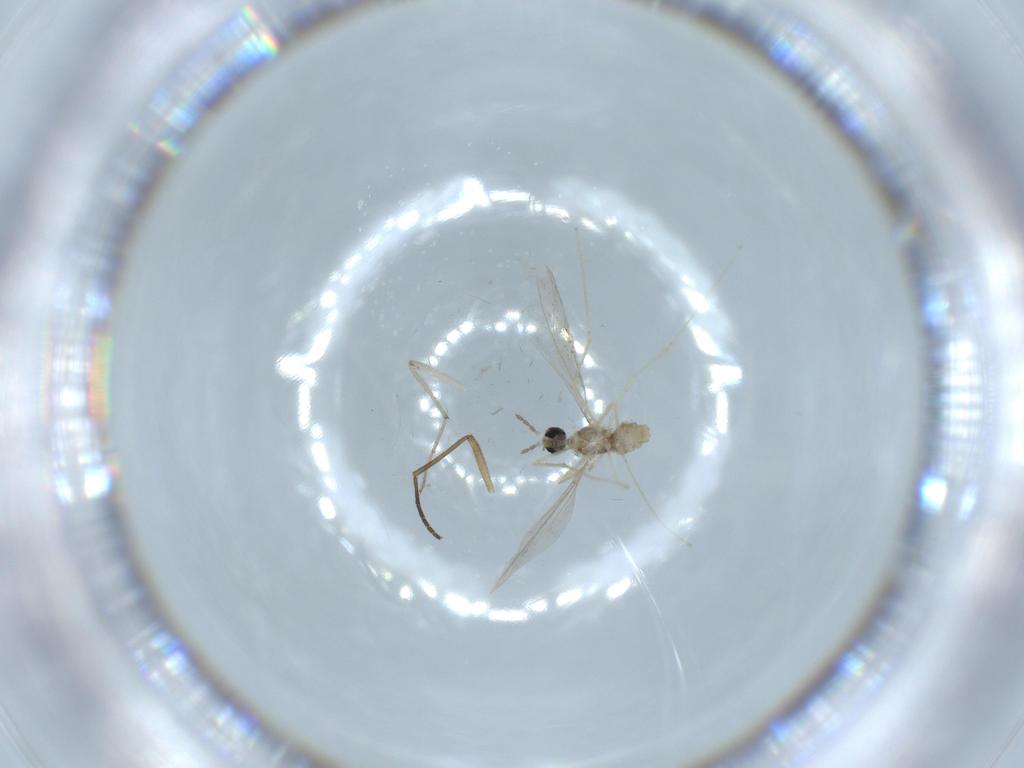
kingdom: Animalia
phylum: Arthropoda
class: Insecta
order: Diptera
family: Cecidomyiidae
